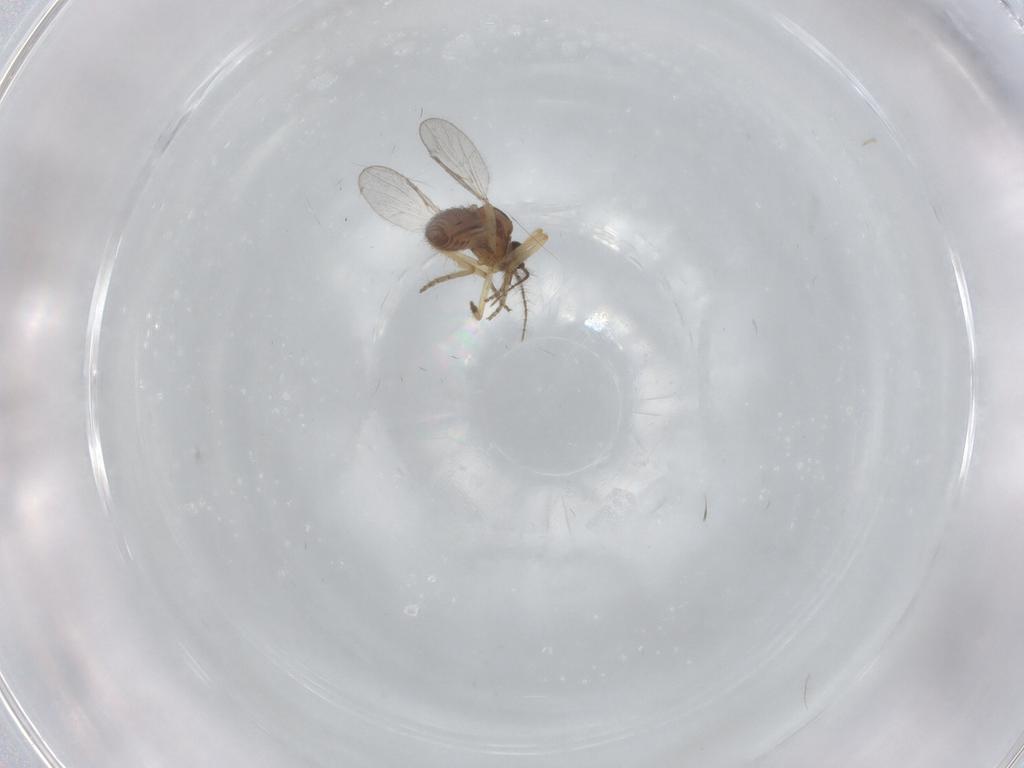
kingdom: Animalia
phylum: Arthropoda
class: Insecta
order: Diptera
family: Ceratopogonidae
